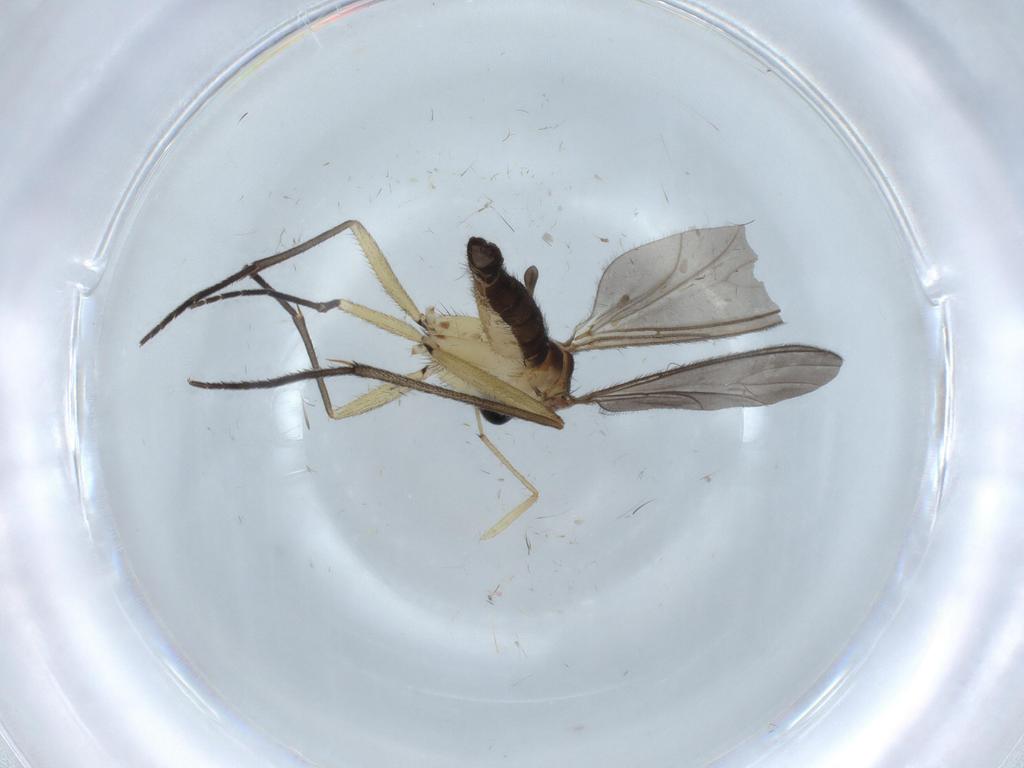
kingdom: Animalia
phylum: Arthropoda
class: Insecta
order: Diptera
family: Sciaridae
